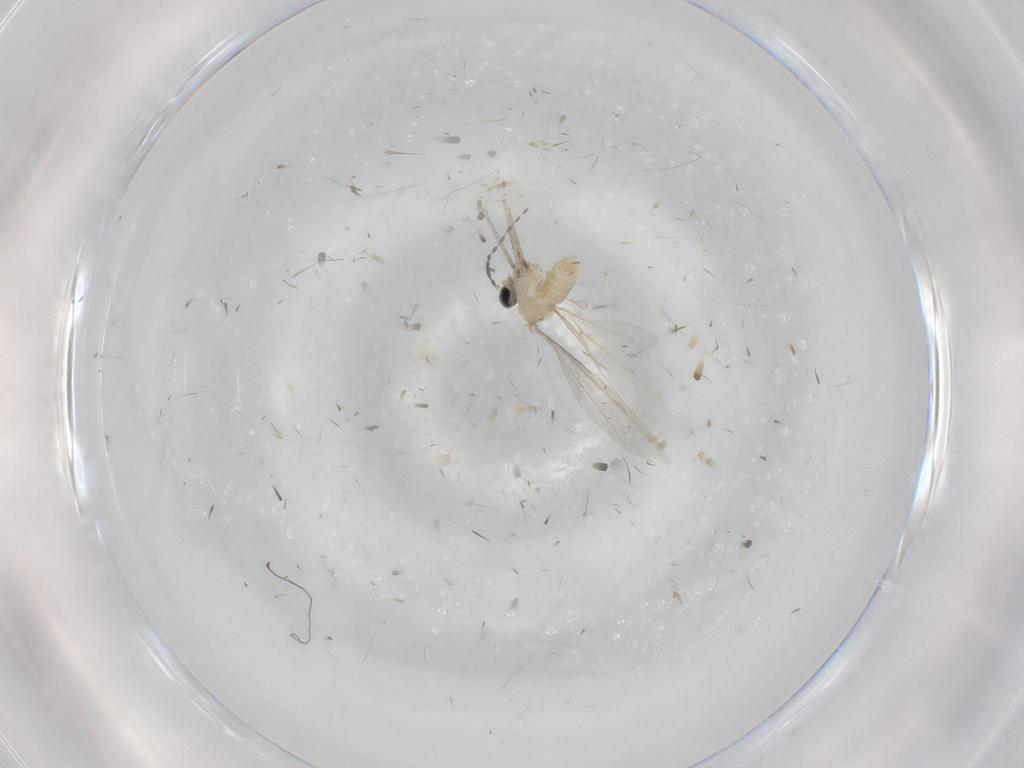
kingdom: Animalia
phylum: Arthropoda
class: Insecta
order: Diptera
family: Cecidomyiidae
